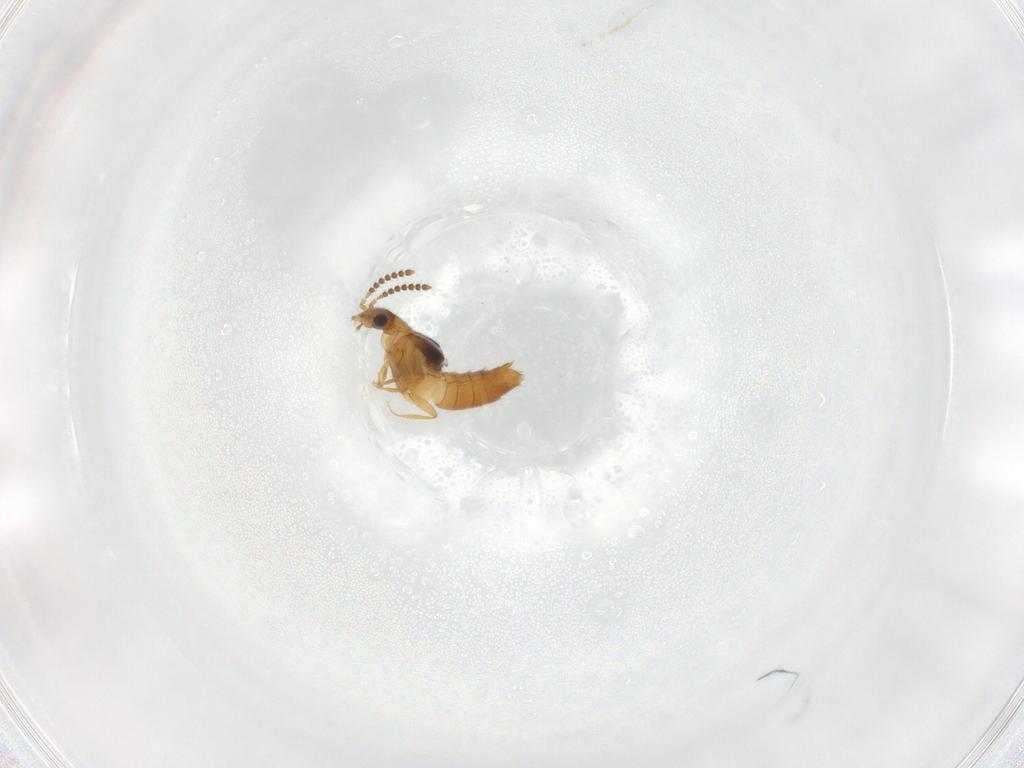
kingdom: Animalia
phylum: Arthropoda
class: Insecta
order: Coleoptera
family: Staphylinidae
